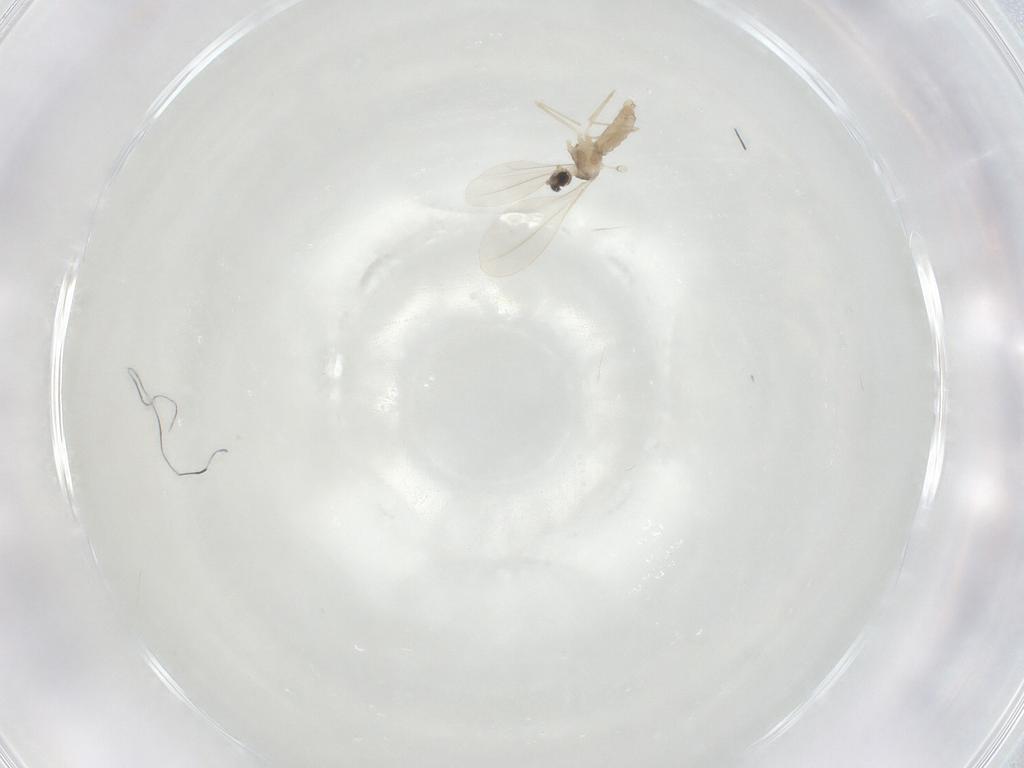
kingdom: Animalia
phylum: Arthropoda
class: Insecta
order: Diptera
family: Cecidomyiidae
